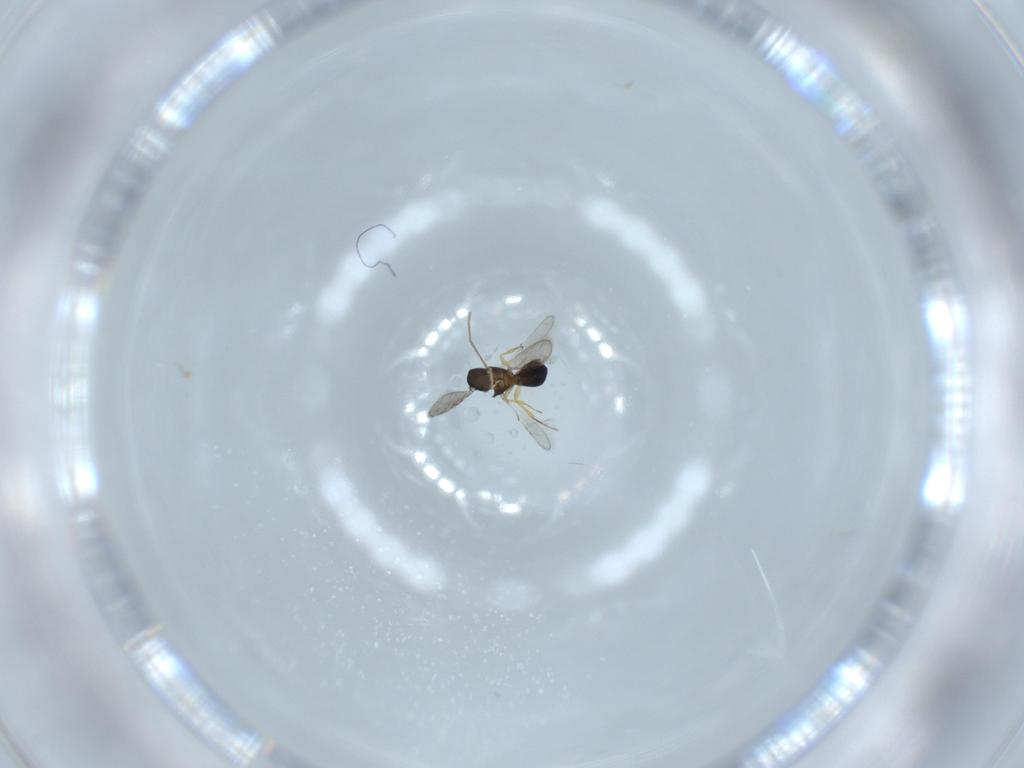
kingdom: Animalia
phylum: Arthropoda
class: Insecta
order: Hymenoptera
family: Scelionidae
